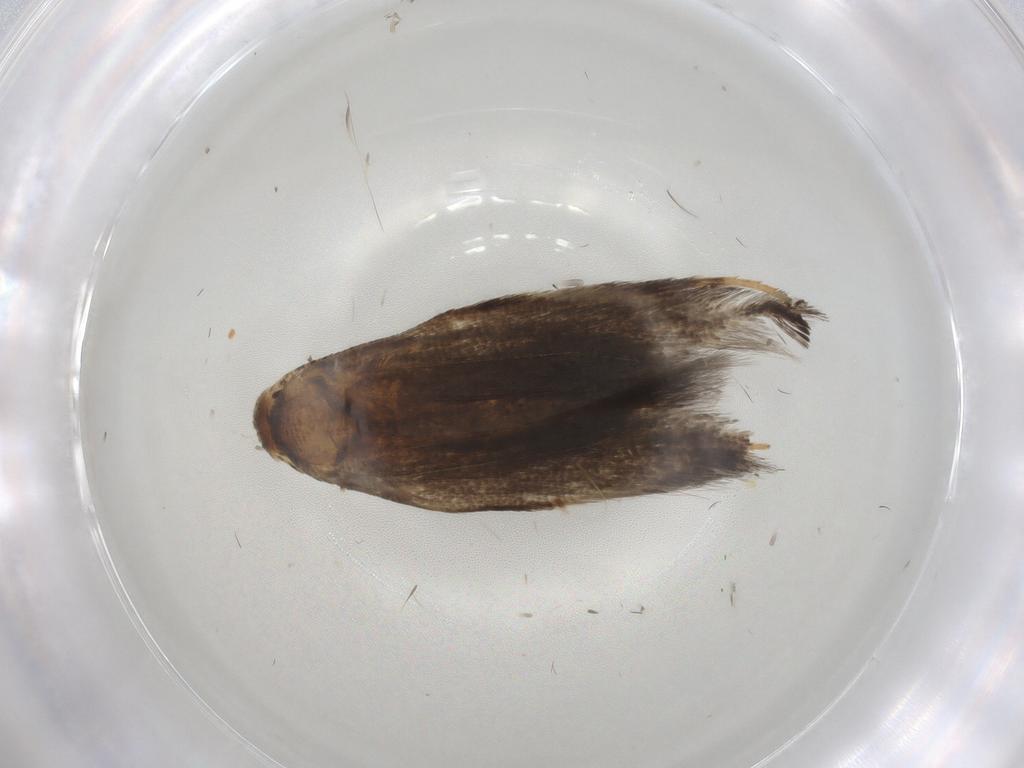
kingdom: Animalia
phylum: Arthropoda
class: Insecta
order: Lepidoptera
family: Elachistidae
